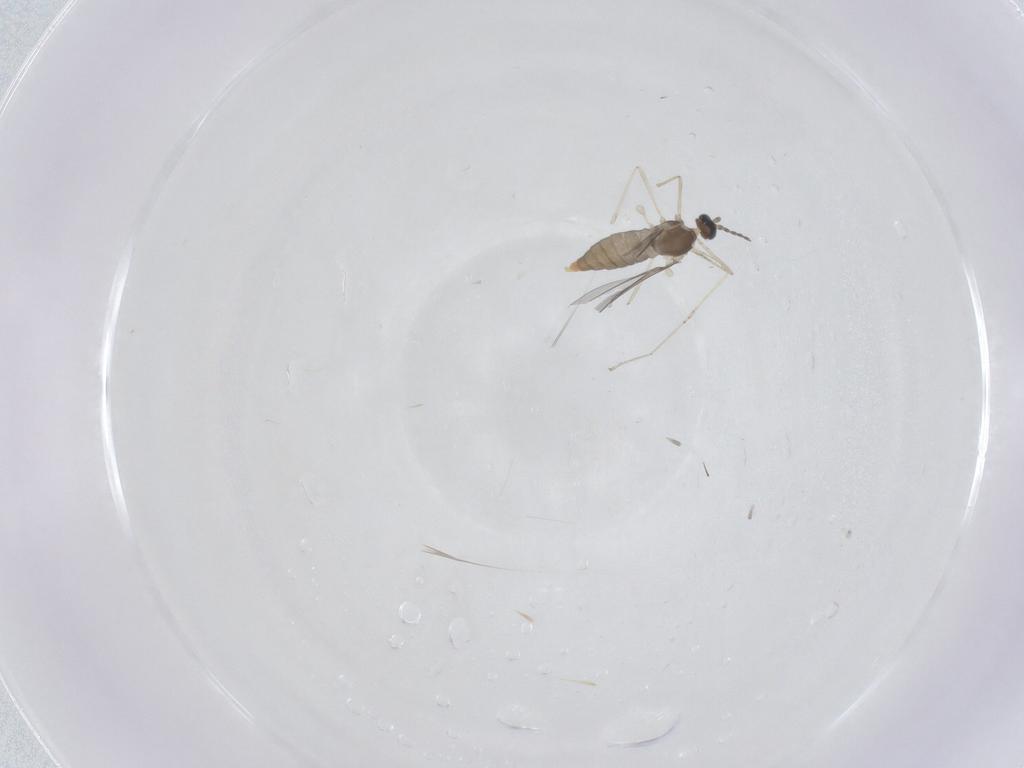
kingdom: Animalia
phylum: Arthropoda
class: Insecta
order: Diptera
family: Cecidomyiidae
